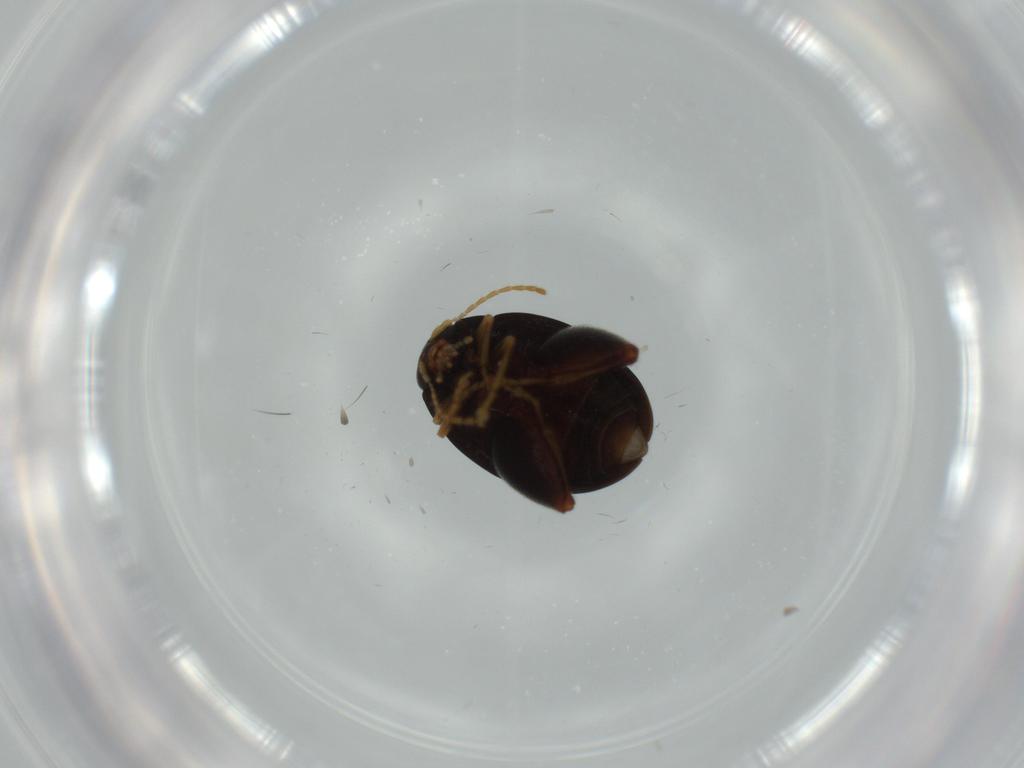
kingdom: Animalia
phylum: Arthropoda
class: Insecta
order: Coleoptera
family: Chrysomelidae
